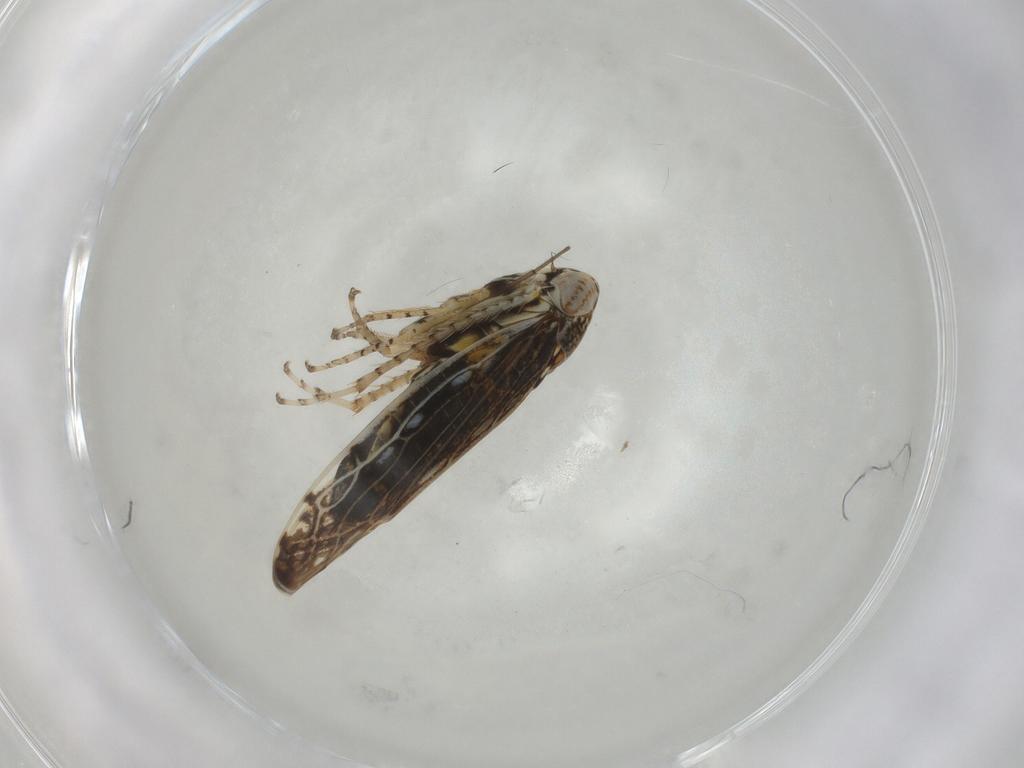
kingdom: Animalia
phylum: Arthropoda
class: Insecta
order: Hemiptera
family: Cicadellidae
